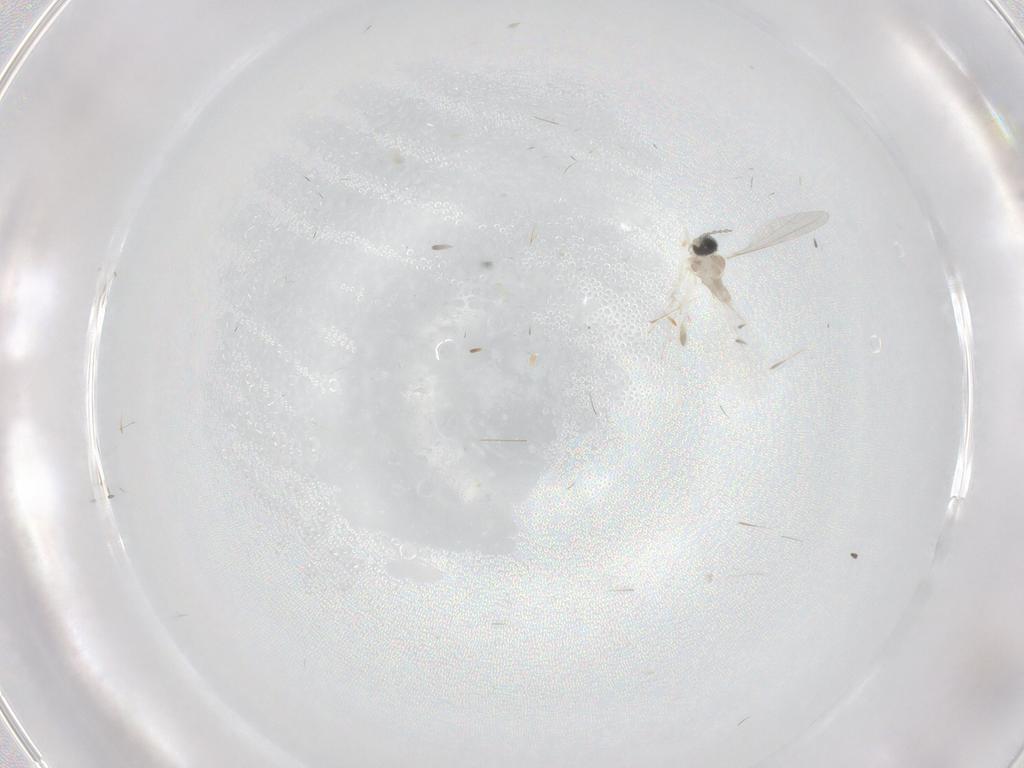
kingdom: Animalia
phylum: Arthropoda
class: Insecta
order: Diptera
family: Cecidomyiidae
